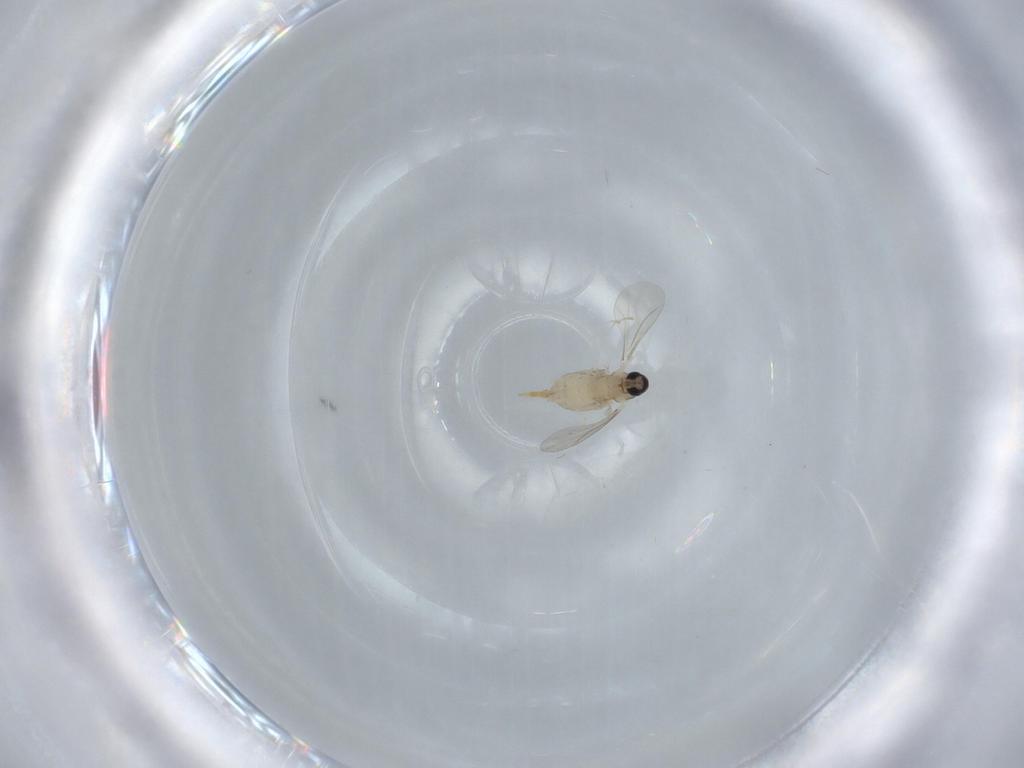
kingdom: Animalia
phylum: Arthropoda
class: Insecta
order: Diptera
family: Cecidomyiidae
